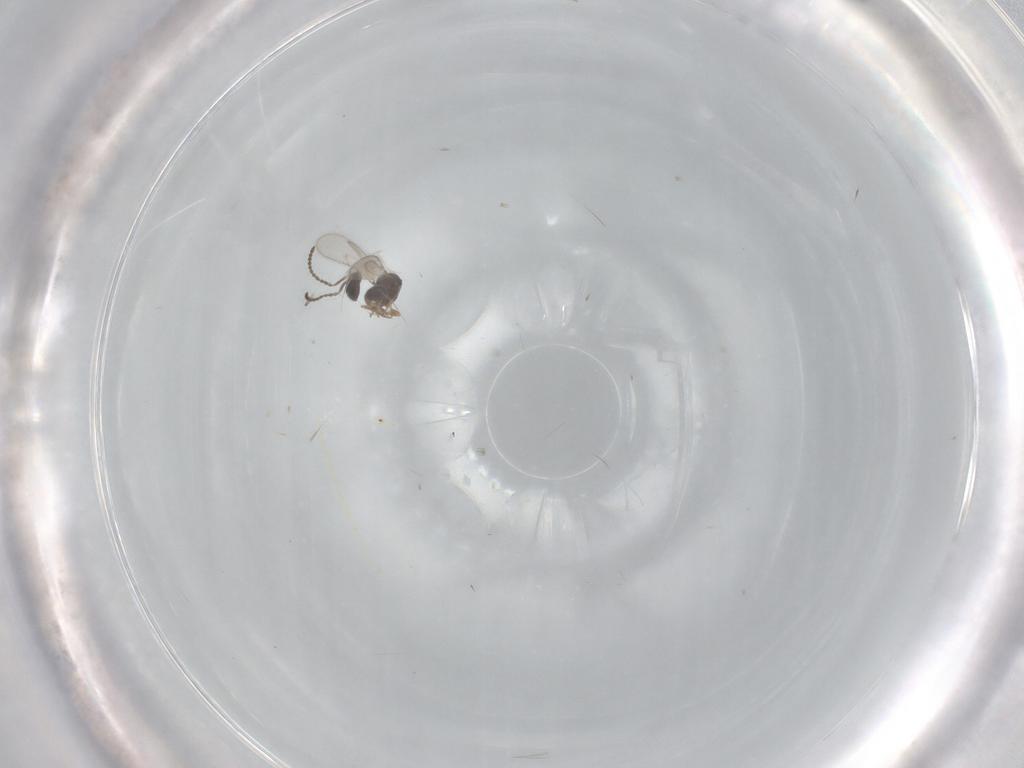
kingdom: Animalia
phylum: Arthropoda
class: Insecta
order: Hymenoptera
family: Scelionidae
